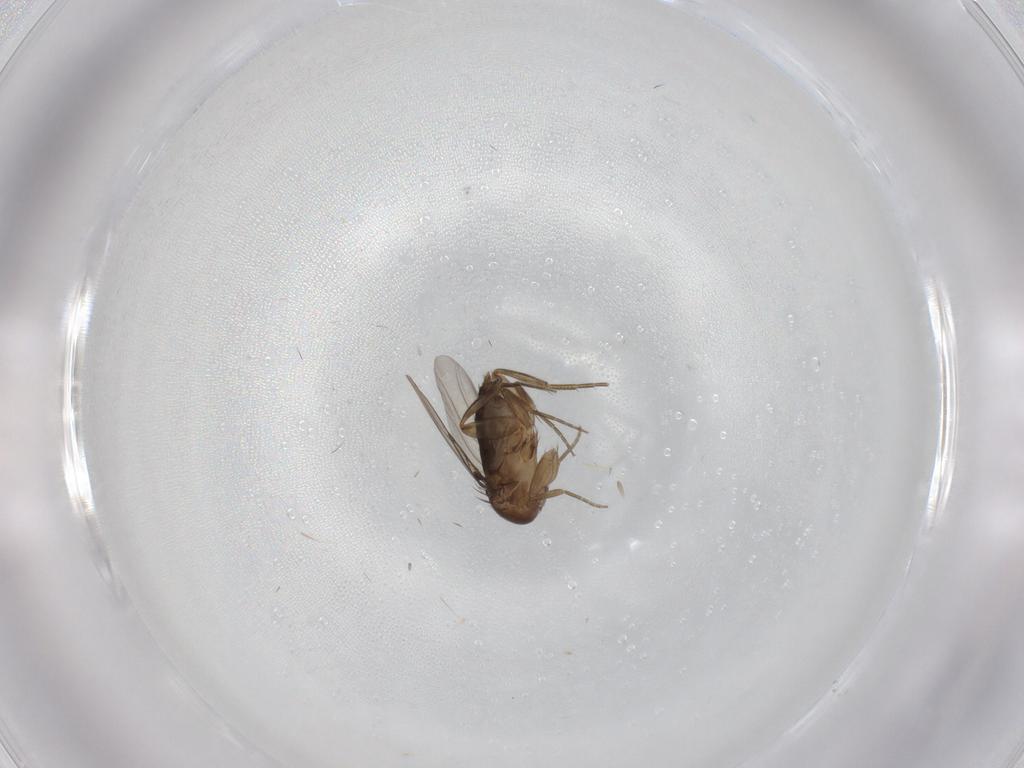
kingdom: Animalia
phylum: Arthropoda
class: Insecta
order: Diptera
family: Phoridae
